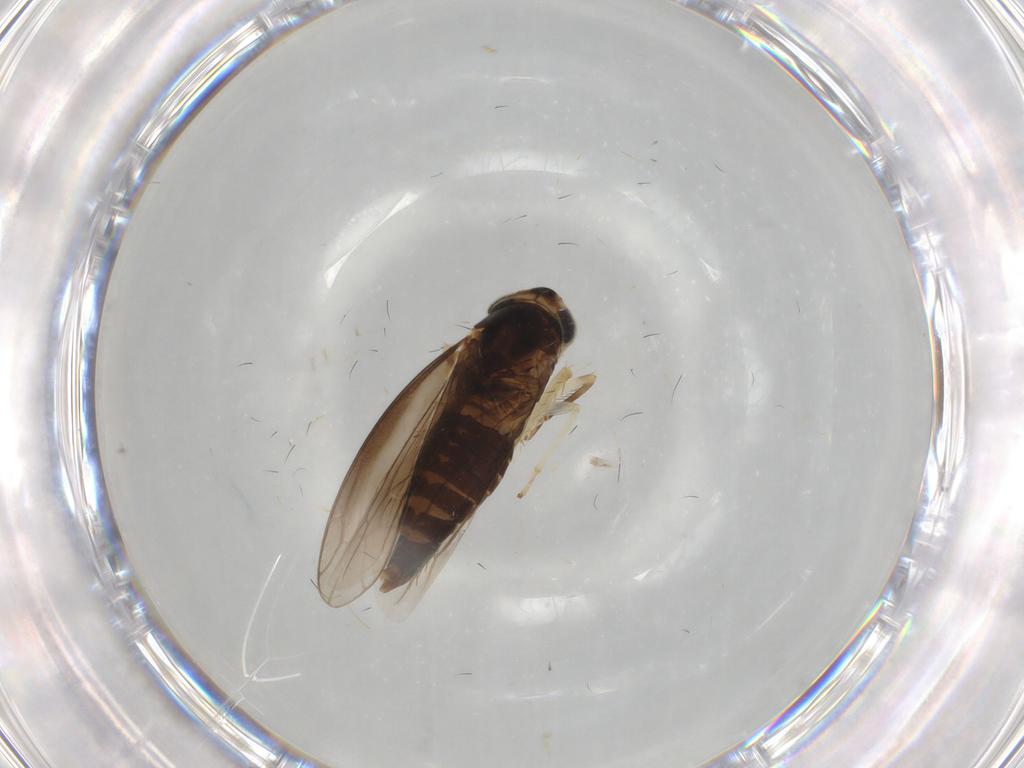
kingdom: Animalia
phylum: Arthropoda
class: Insecta
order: Hemiptera
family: Cicadellidae
